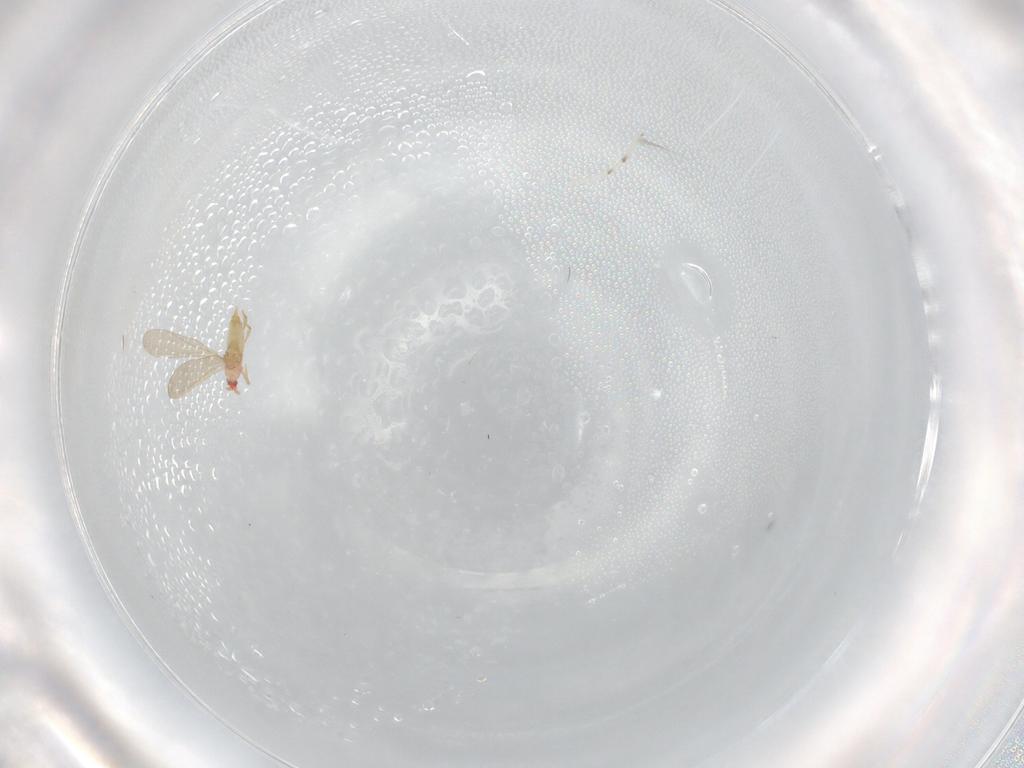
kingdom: Animalia
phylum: Arthropoda
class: Insecta
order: Diptera
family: Chironomidae
